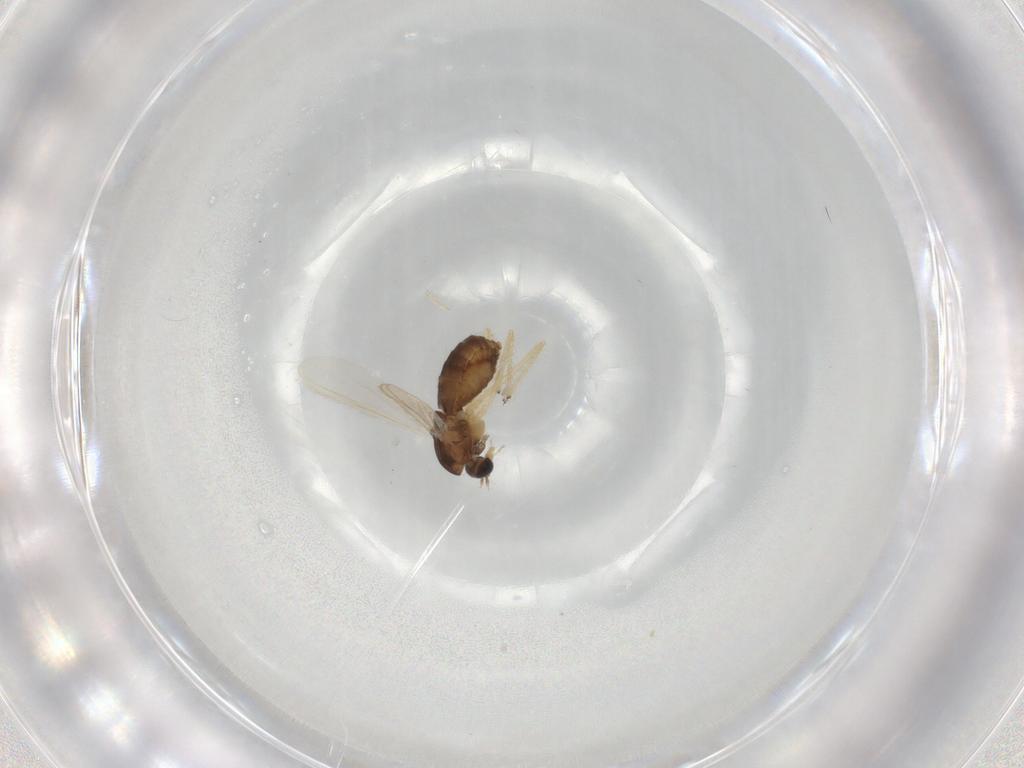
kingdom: Animalia
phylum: Arthropoda
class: Insecta
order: Diptera
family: Chironomidae
